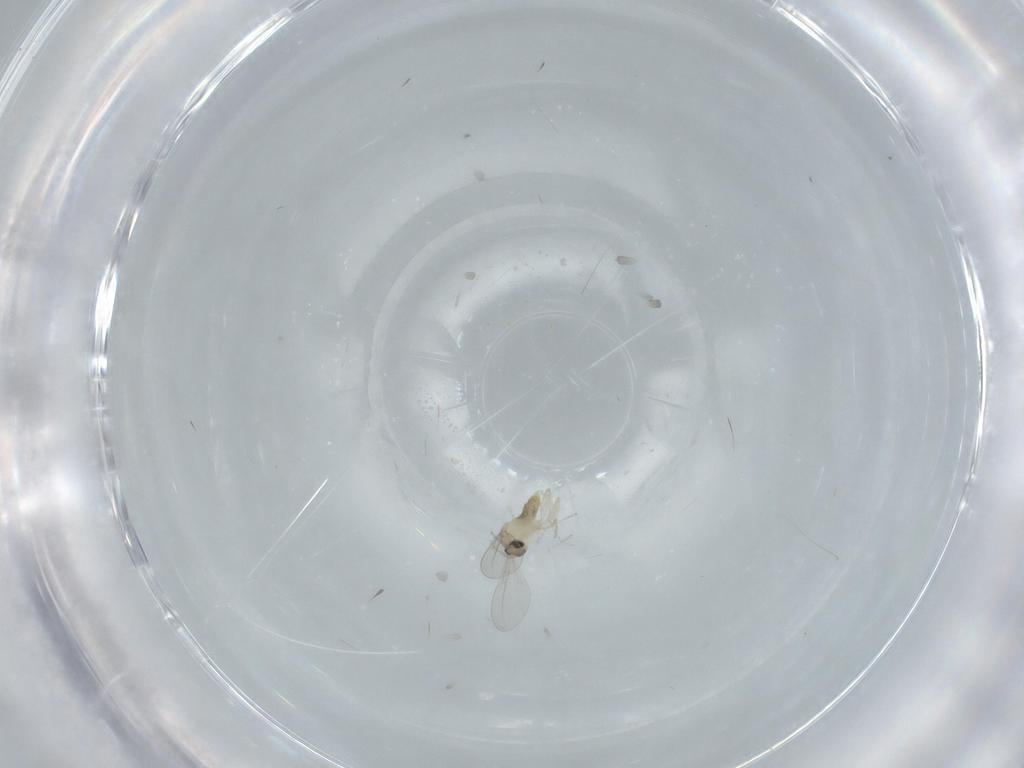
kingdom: Animalia
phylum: Arthropoda
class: Insecta
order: Diptera
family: Cecidomyiidae
